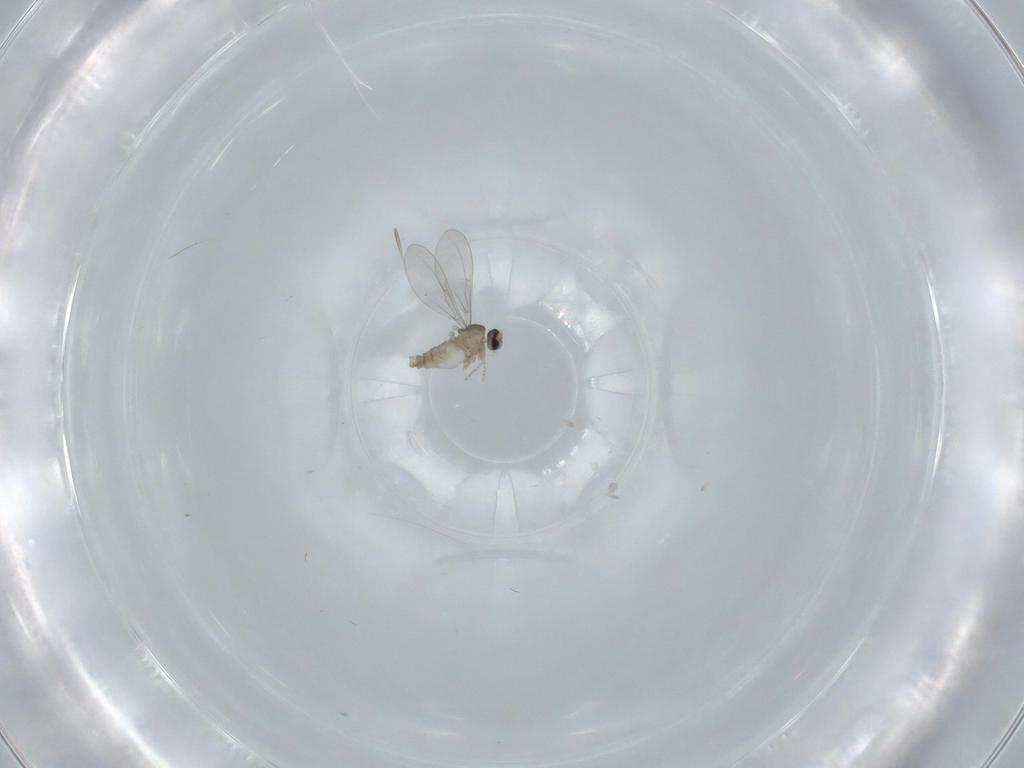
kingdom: Animalia
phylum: Arthropoda
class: Insecta
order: Diptera
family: Cecidomyiidae
